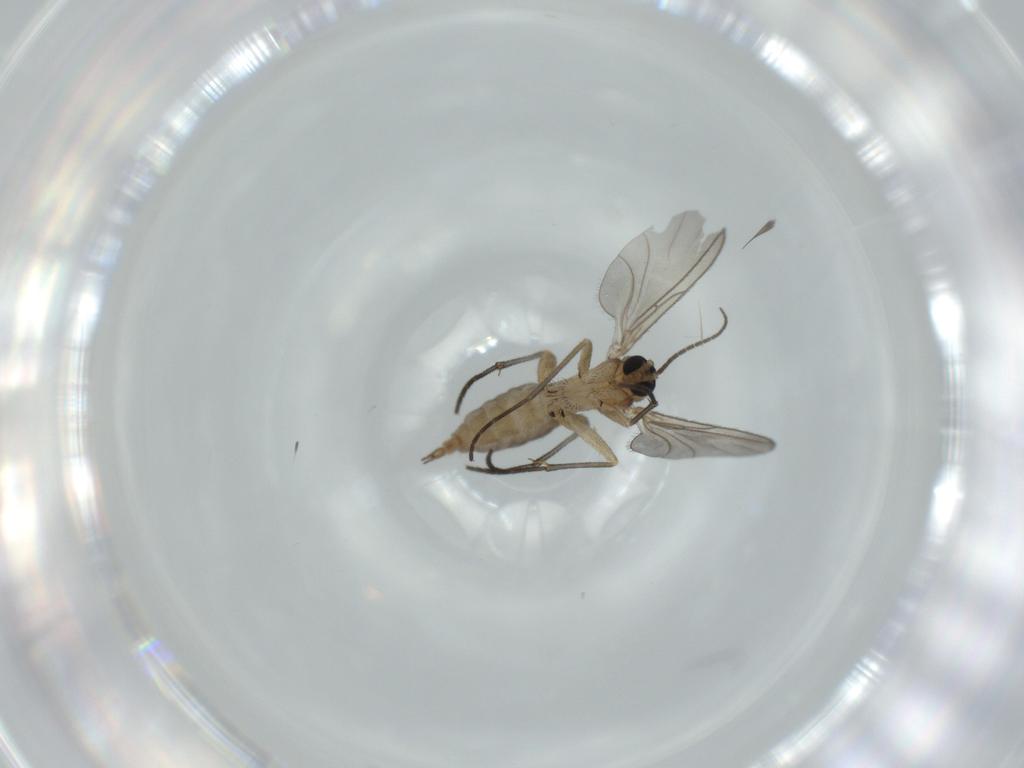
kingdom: Animalia
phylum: Arthropoda
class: Insecta
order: Diptera
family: Sciaridae
